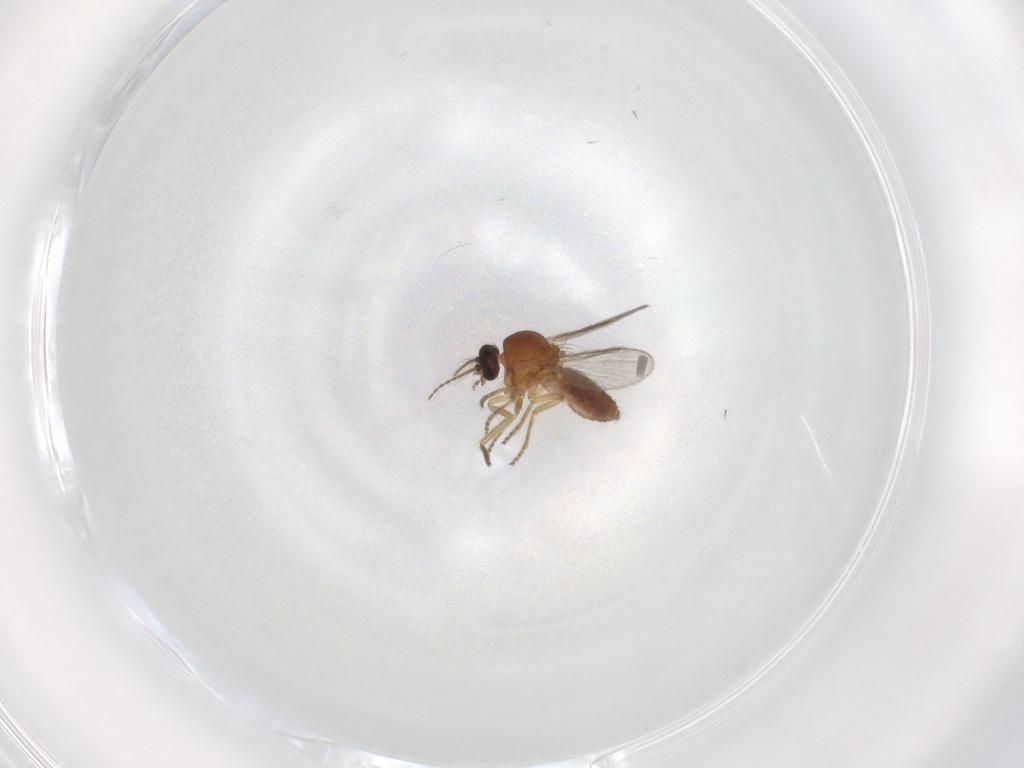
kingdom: Animalia
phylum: Arthropoda
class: Insecta
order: Diptera
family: Ceratopogonidae
